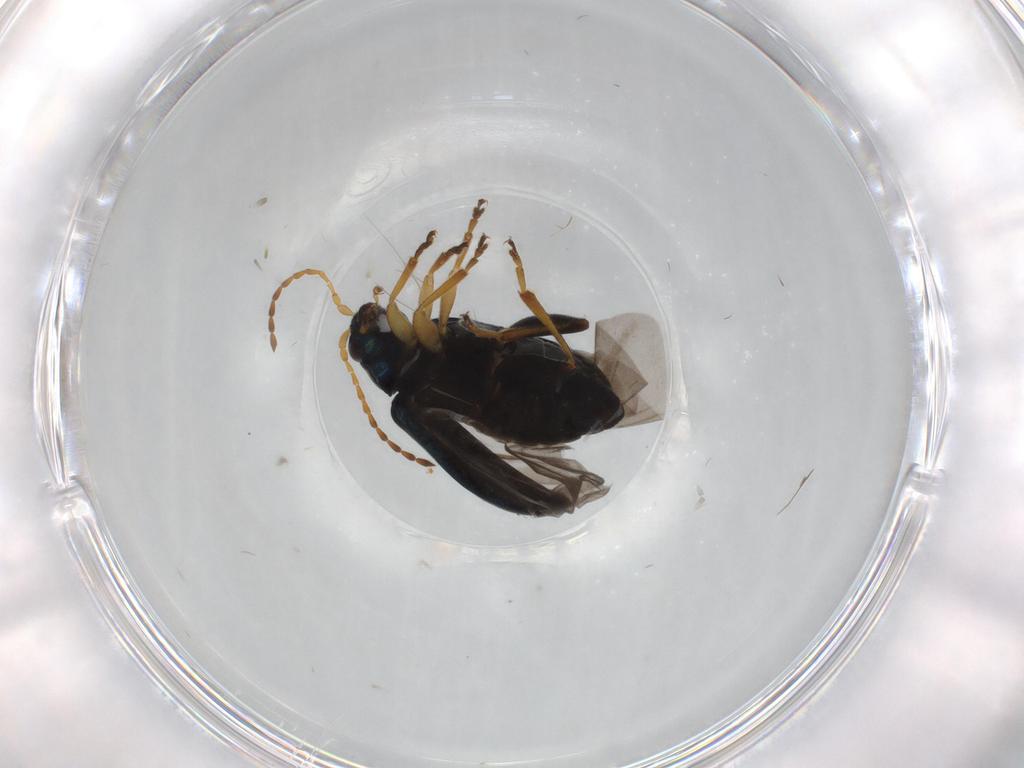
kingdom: Animalia
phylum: Arthropoda
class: Insecta
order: Coleoptera
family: Chrysomelidae
